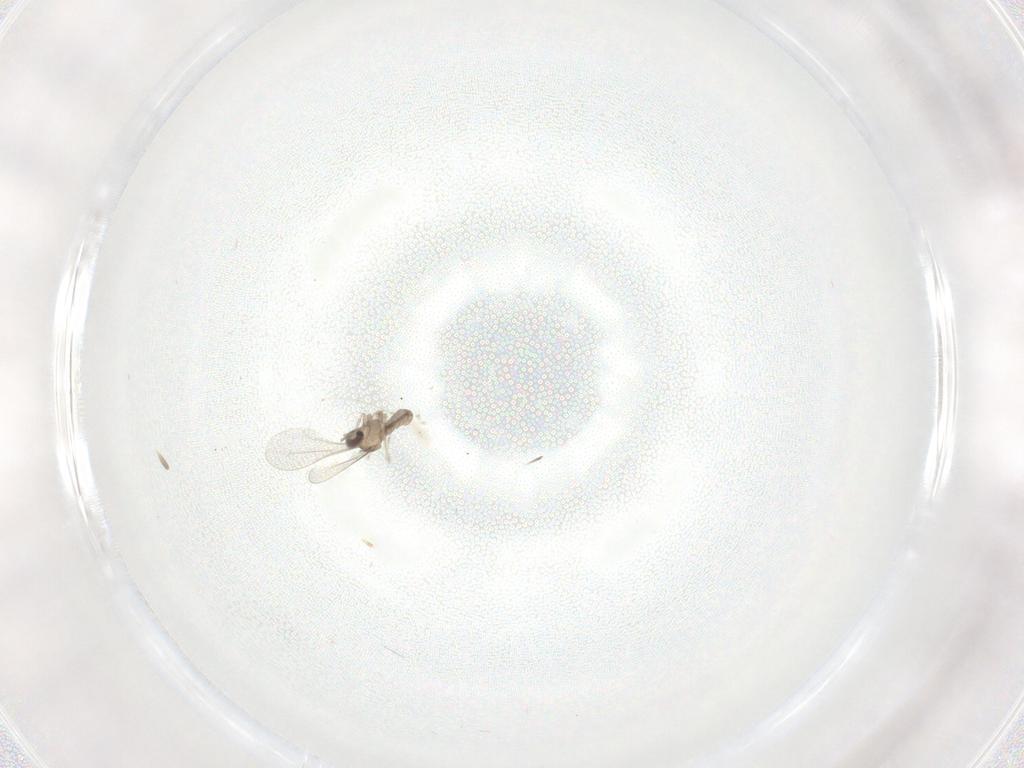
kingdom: Animalia
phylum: Arthropoda
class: Insecta
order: Diptera
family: Cecidomyiidae
